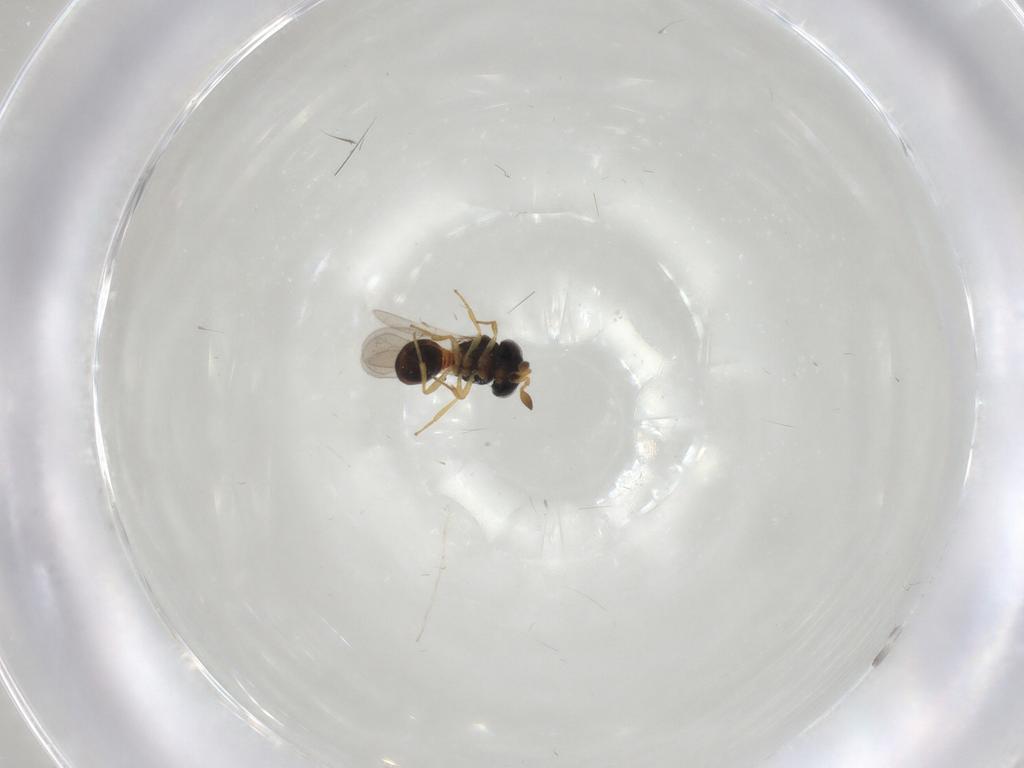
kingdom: Animalia
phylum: Arthropoda
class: Insecta
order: Hymenoptera
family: Scelionidae
